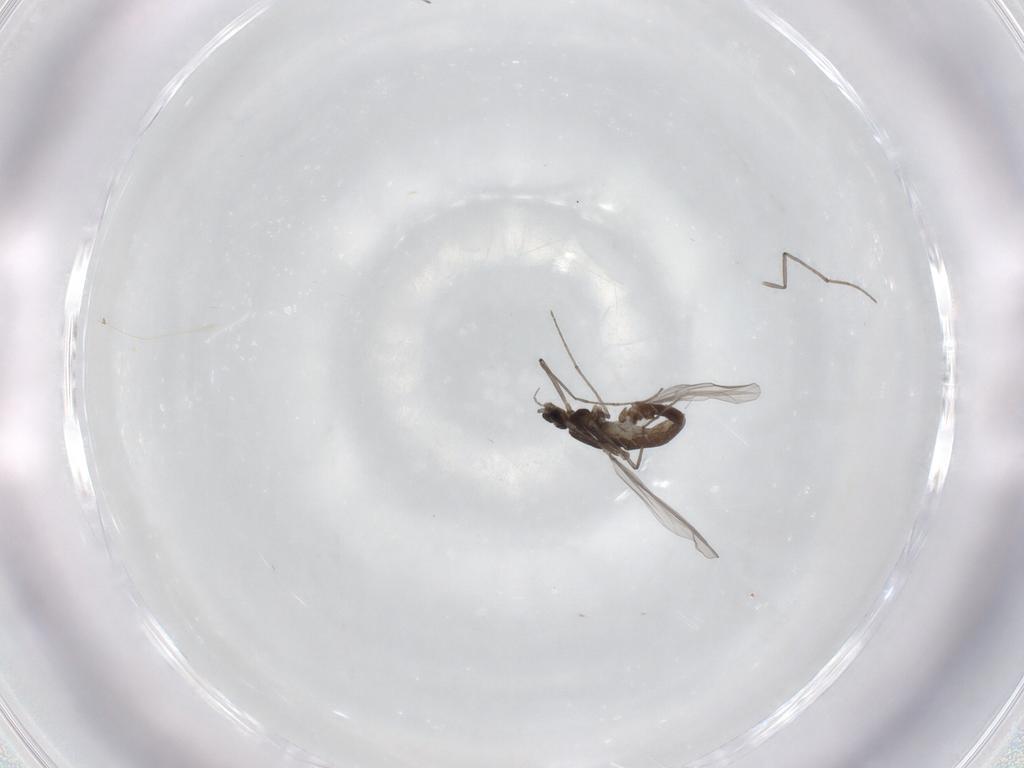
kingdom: Animalia
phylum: Arthropoda
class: Insecta
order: Diptera
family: Chironomidae
